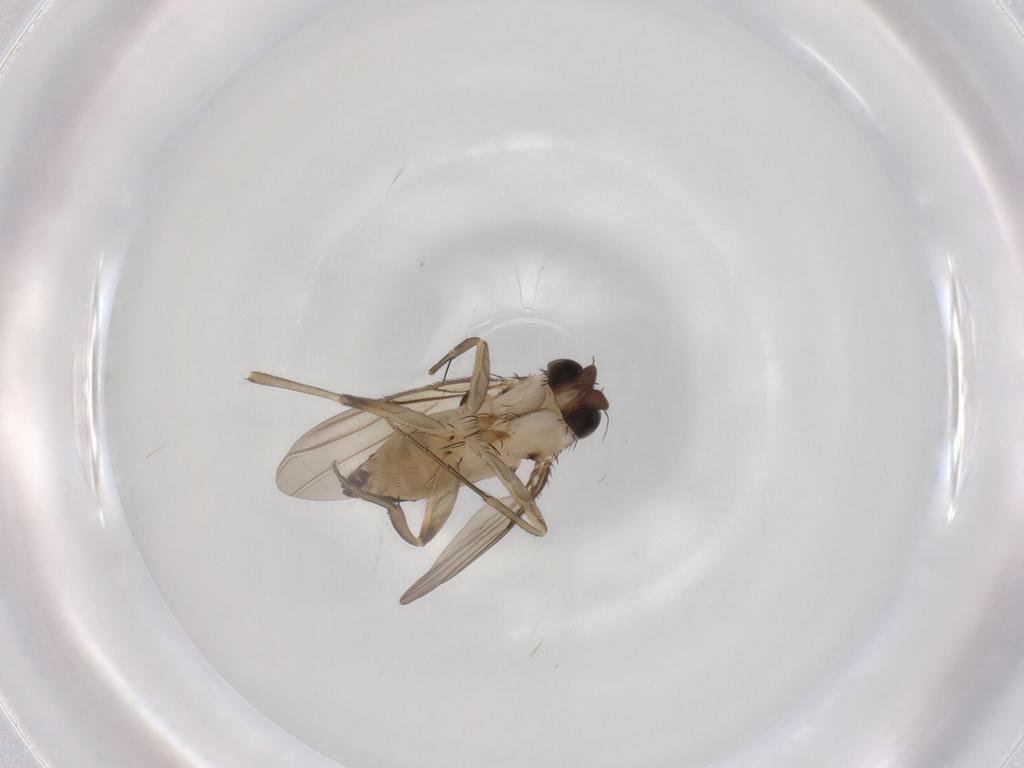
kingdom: Animalia
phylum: Arthropoda
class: Insecta
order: Diptera
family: Phoridae
